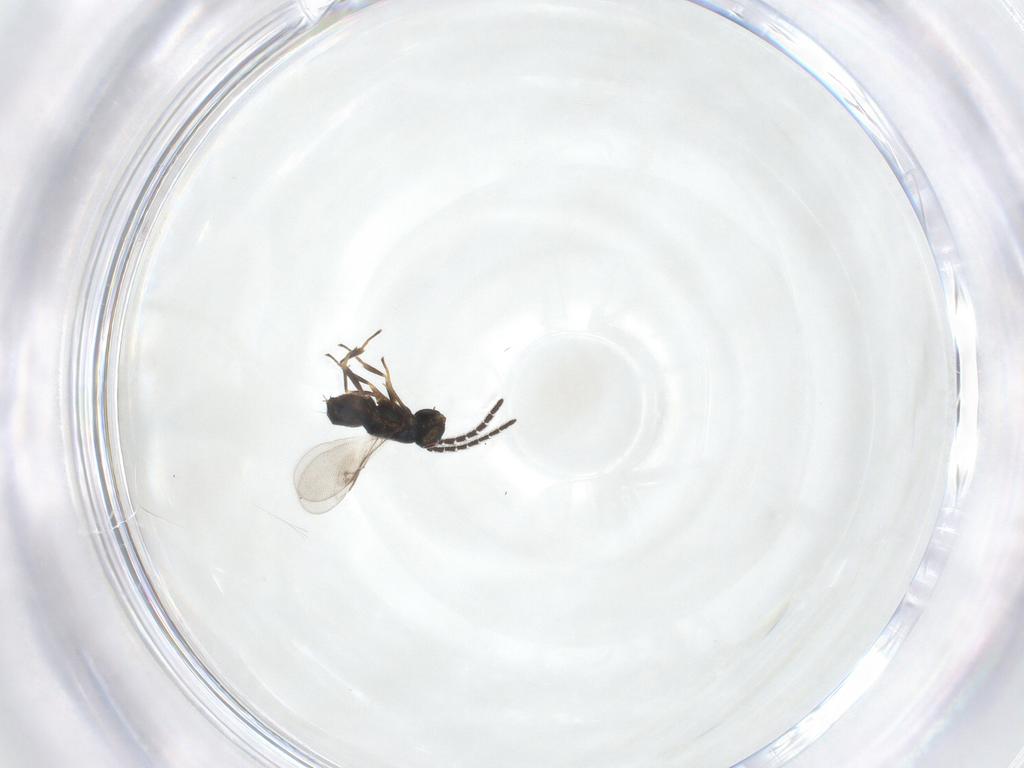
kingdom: Animalia
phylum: Arthropoda
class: Insecta
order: Hymenoptera
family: Encyrtidae
